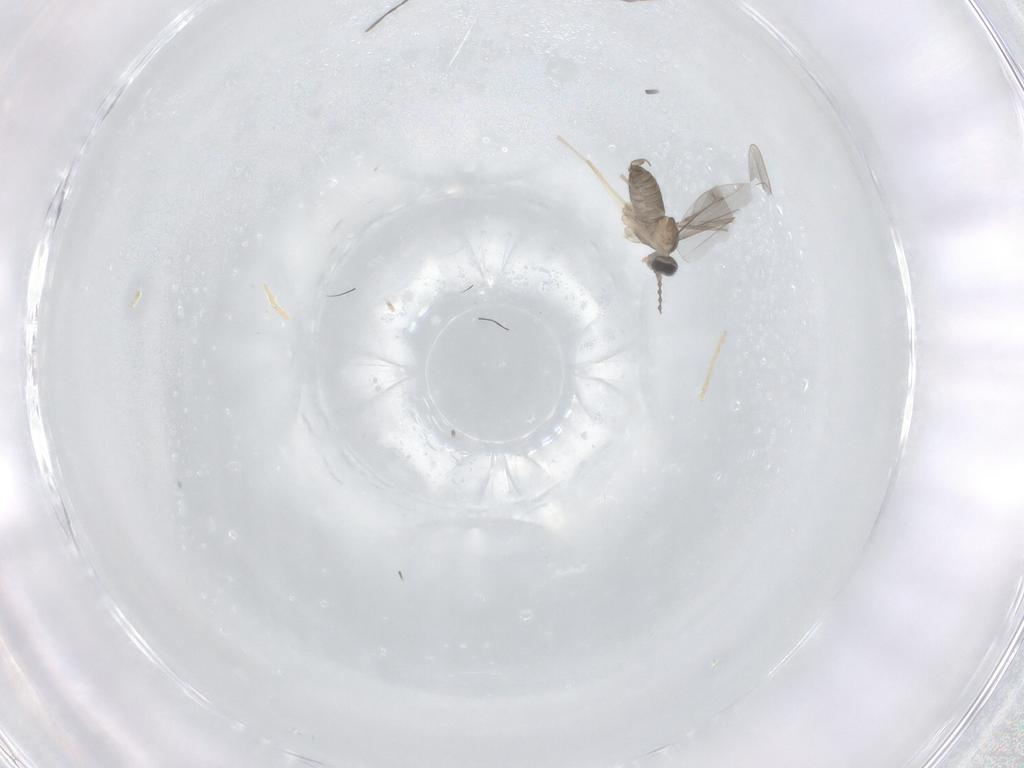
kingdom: Animalia
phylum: Arthropoda
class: Insecta
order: Diptera
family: Cecidomyiidae
